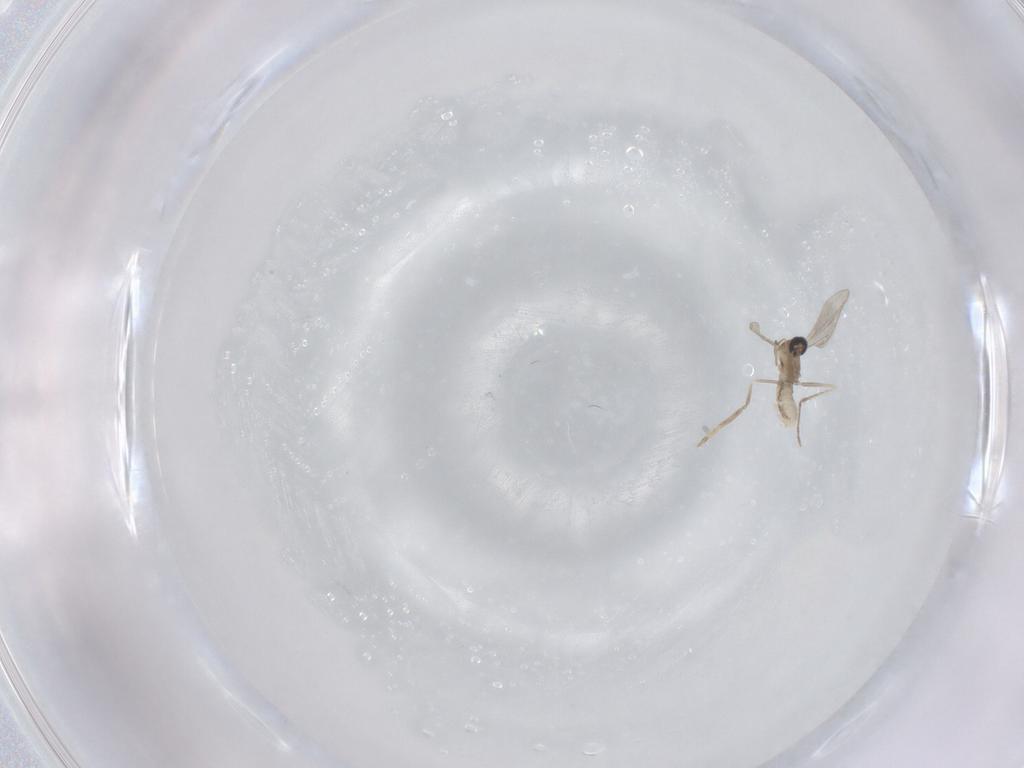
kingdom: Animalia
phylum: Arthropoda
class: Insecta
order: Diptera
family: Cecidomyiidae
